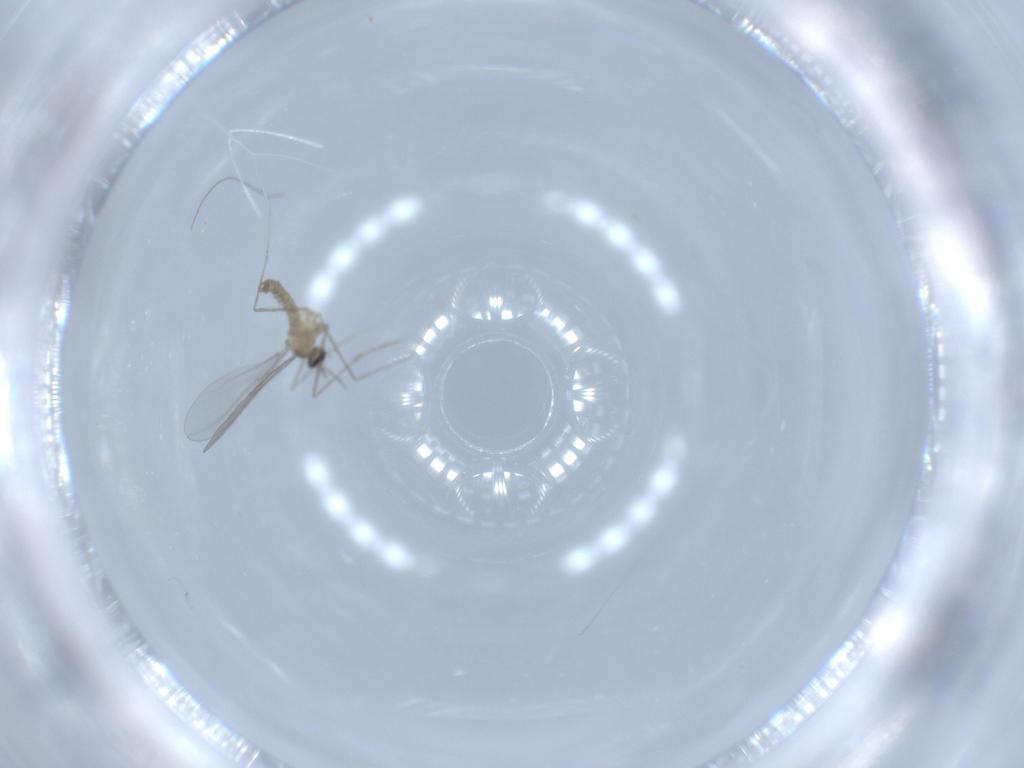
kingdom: Animalia
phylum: Arthropoda
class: Insecta
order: Diptera
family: Cecidomyiidae
